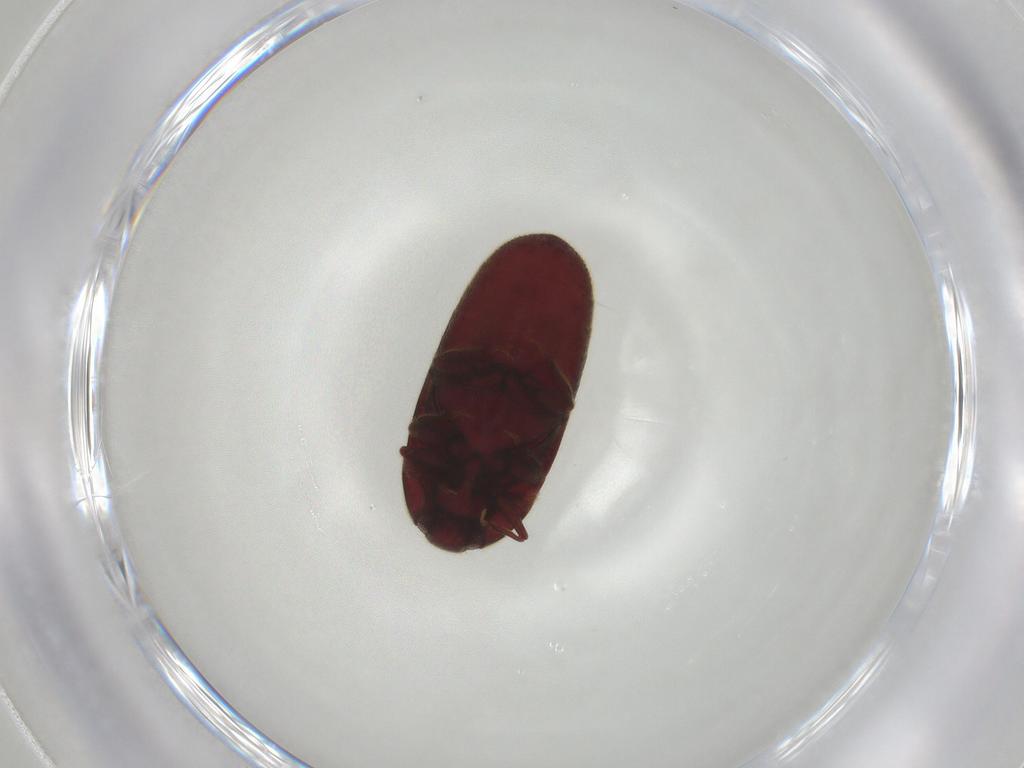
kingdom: Animalia
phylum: Arthropoda
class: Insecta
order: Coleoptera
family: Throscidae
